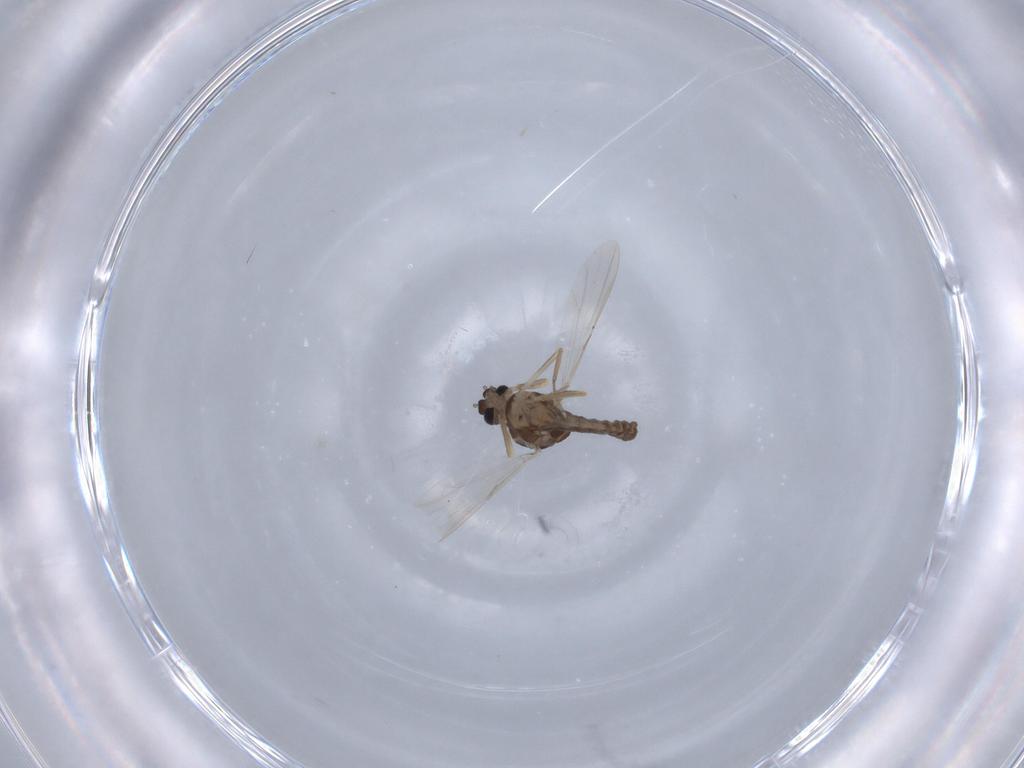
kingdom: Animalia
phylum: Arthropoda
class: Insecta
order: Diptera
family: Ceratopogonidae
